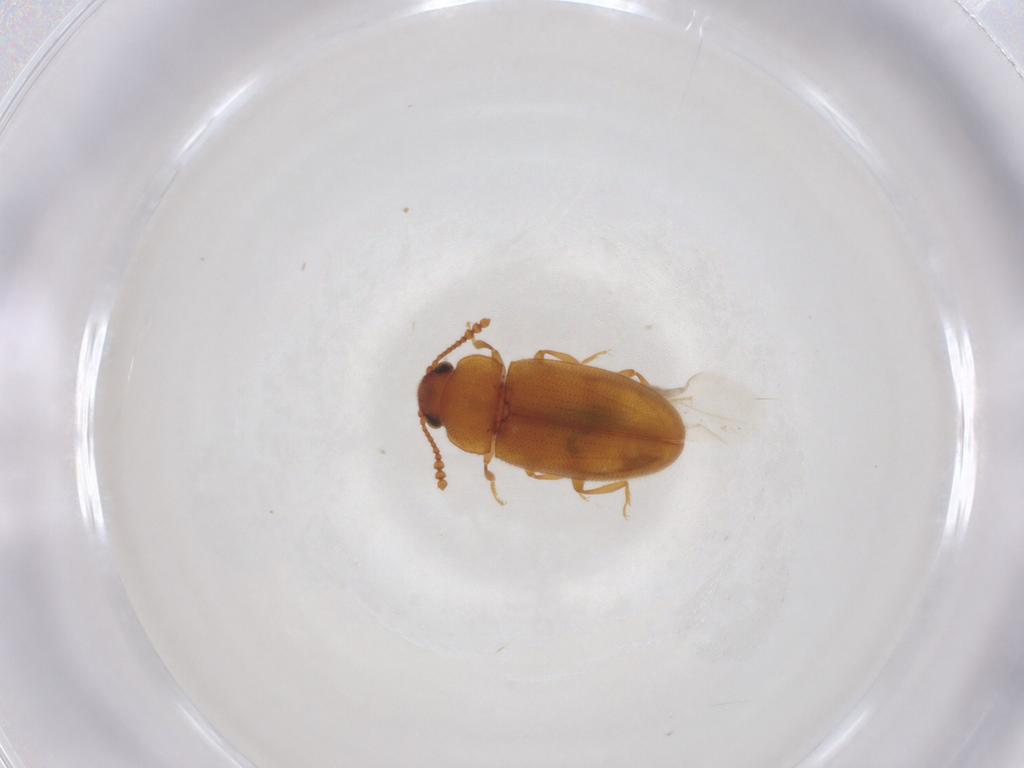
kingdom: Animalia
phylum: Arthropoda
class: Insecta
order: Coleoptera
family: Erotylidae
